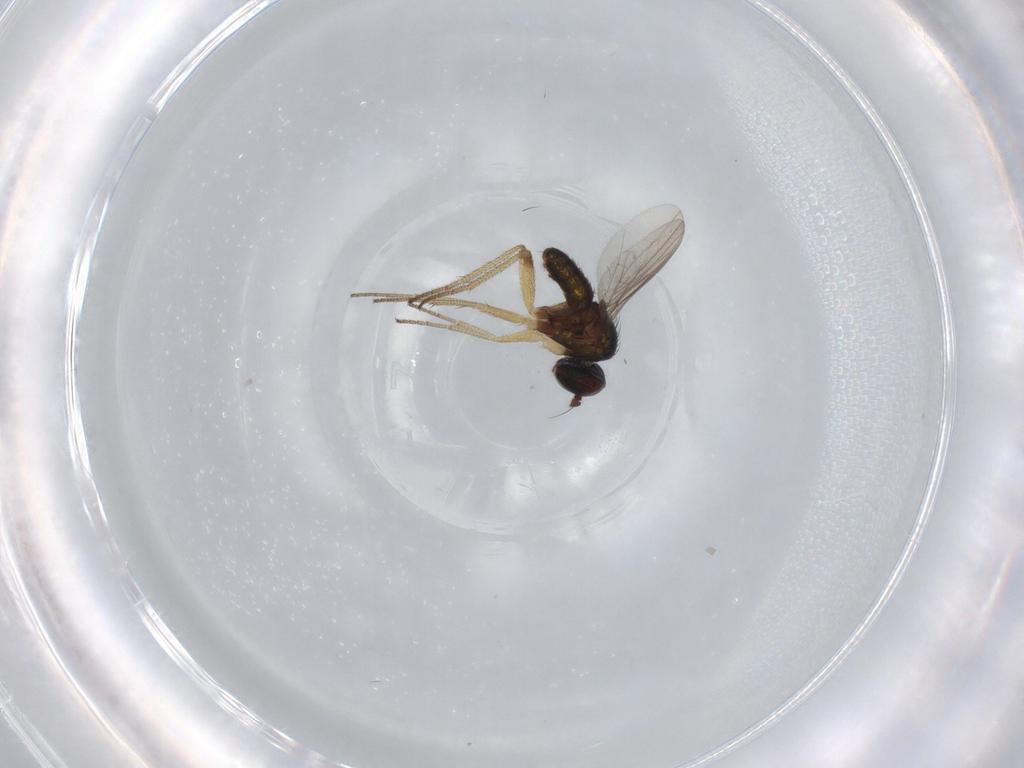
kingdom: Animalia
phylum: Arthropoda
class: Insecta
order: Diptera
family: Dolichopodidae
